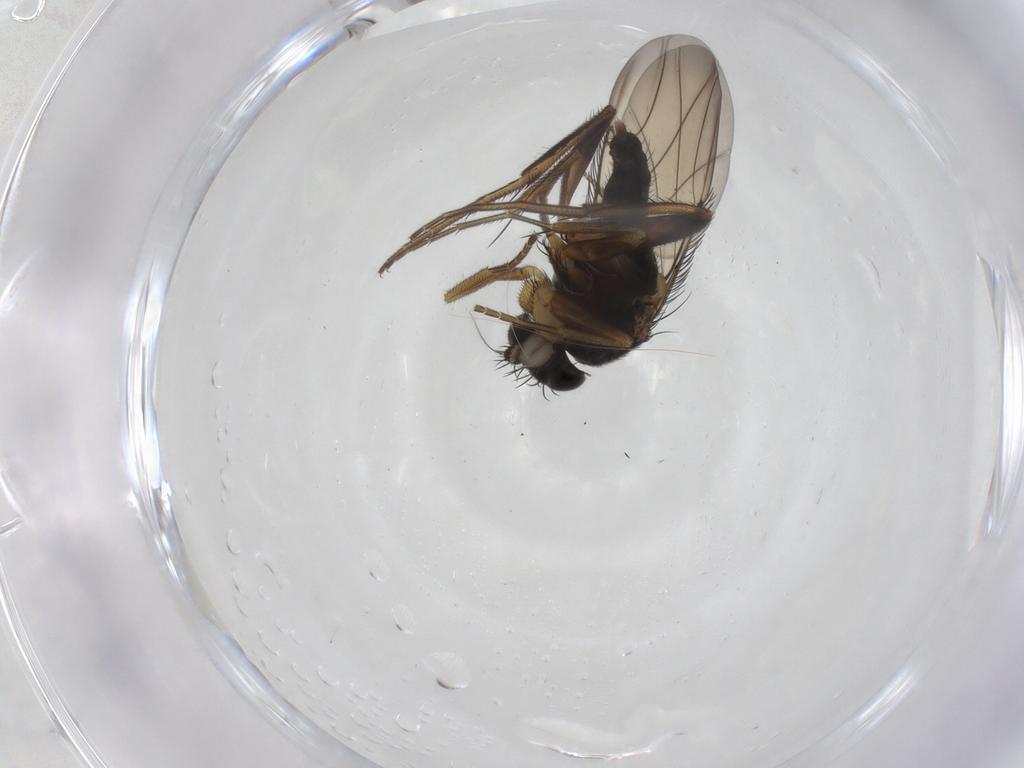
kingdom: Animalia
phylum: Arthropoda
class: Insecta
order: Diptera
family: Phoridae
